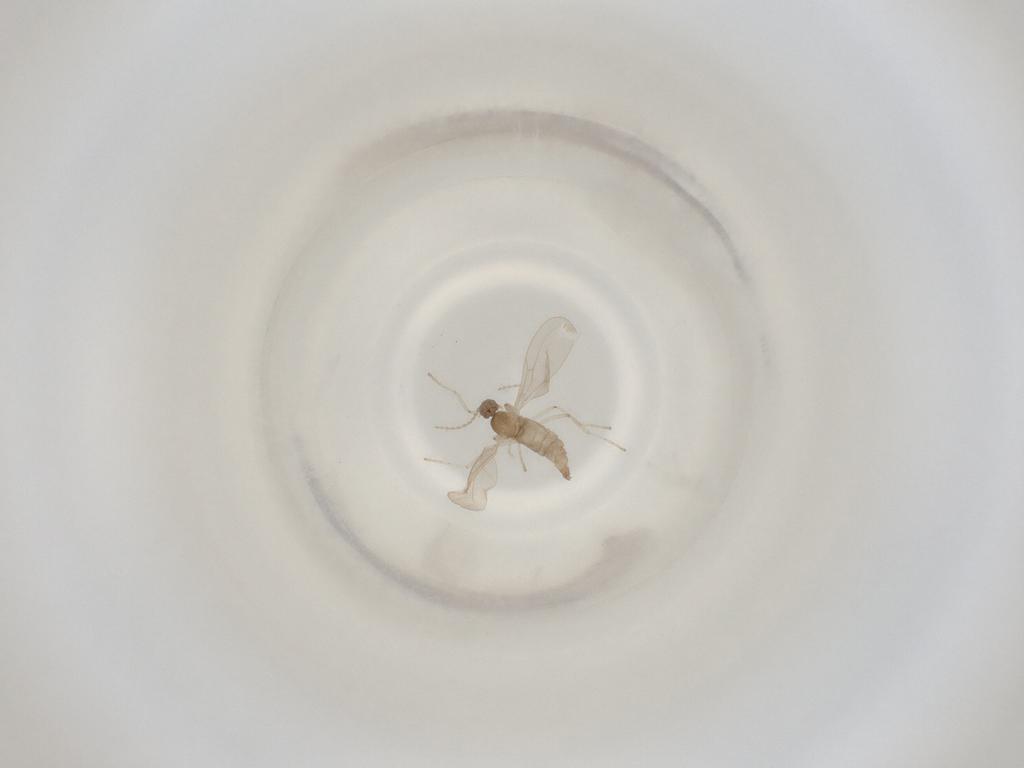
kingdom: Animalia
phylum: Arthropoda
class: Insecta
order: Diptera
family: Cecidomyiidae
